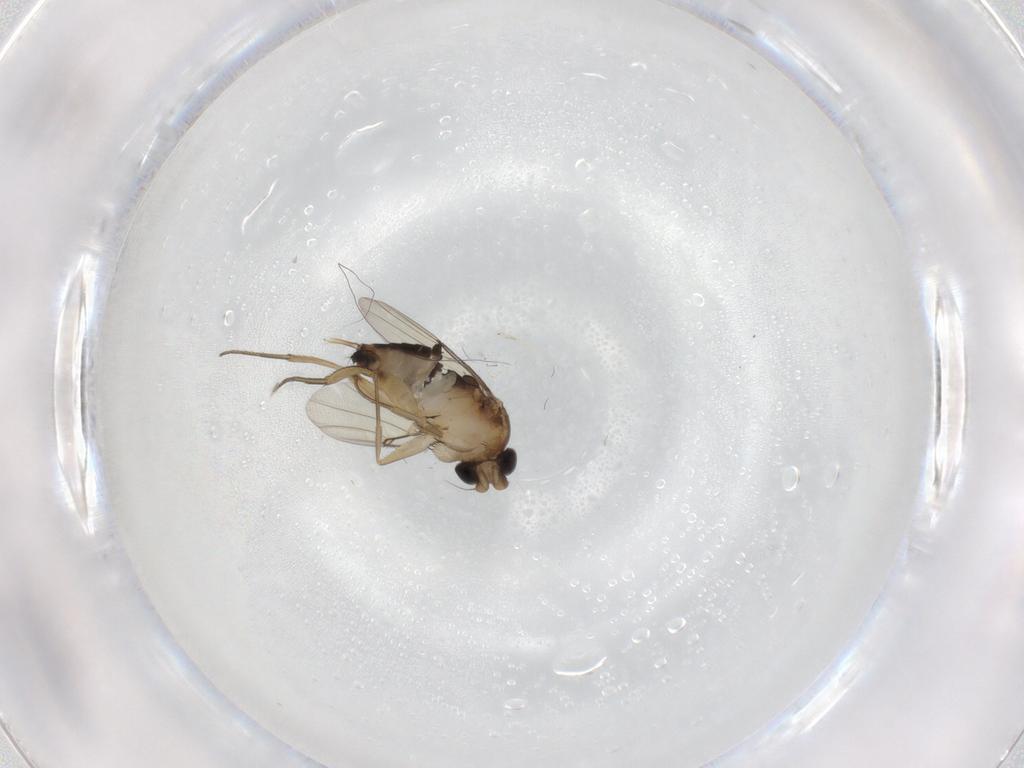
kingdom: Animalia
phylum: Arthropoda
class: Insecta
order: Diptera
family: Phoridae
